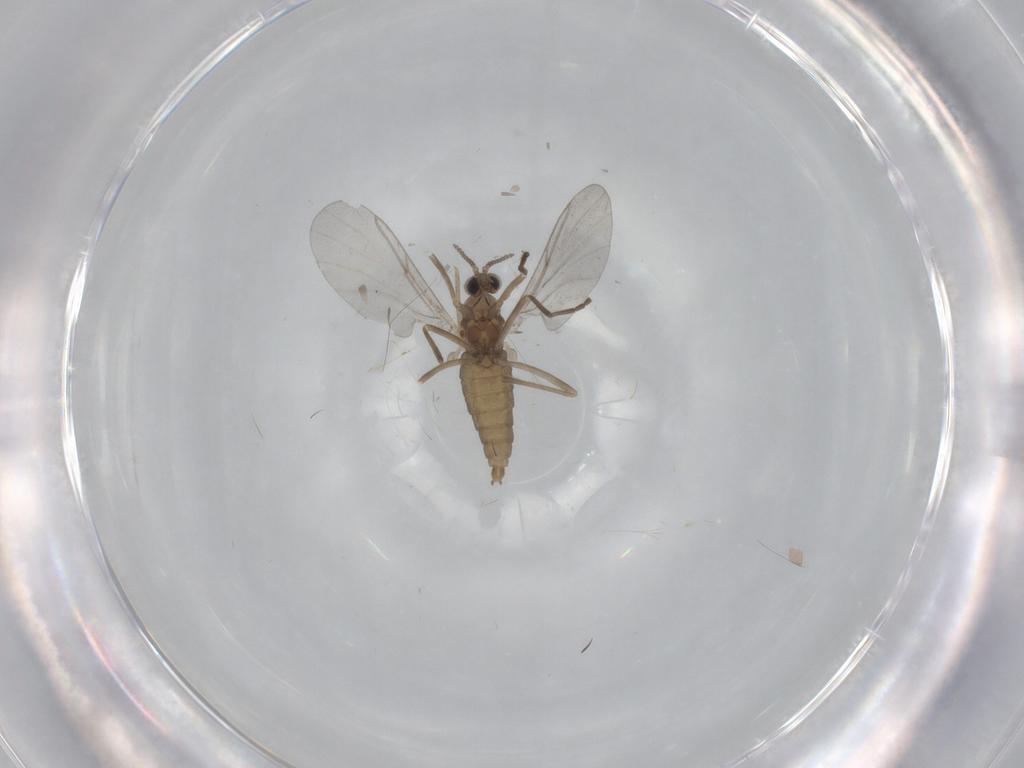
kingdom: Animalia
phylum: Arthropoda
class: Insecta
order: Diptera
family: Cecidomyiidae
